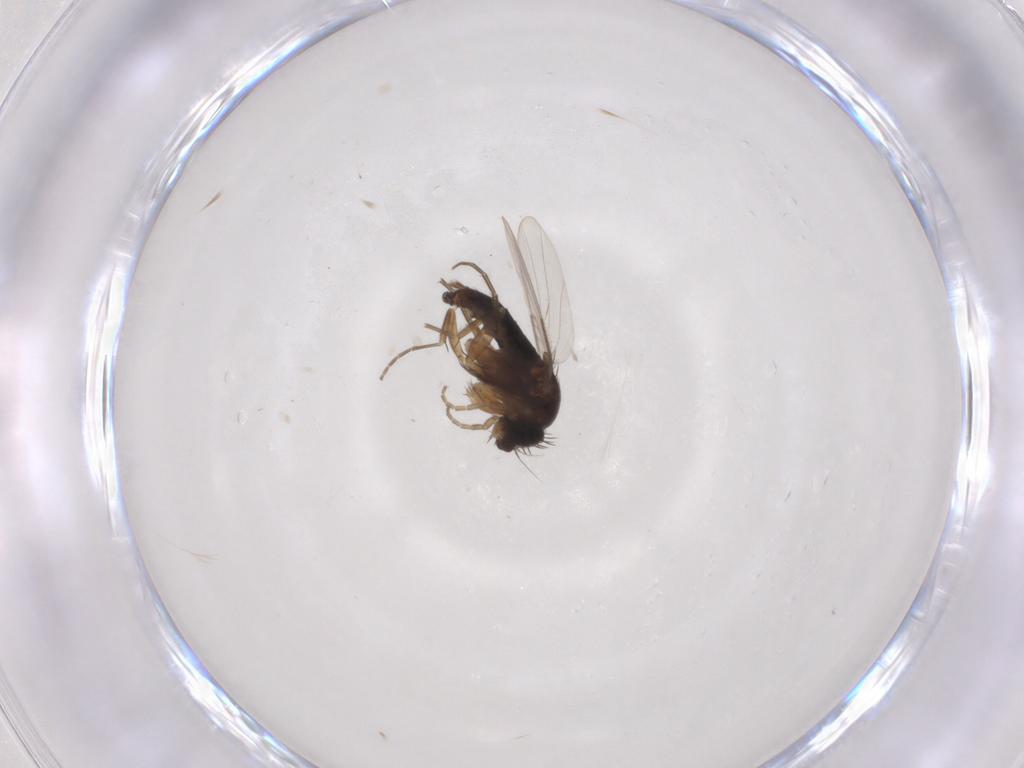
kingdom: Animalia
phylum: Arthropoda
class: Insecta
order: Diptera
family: Phoridae
